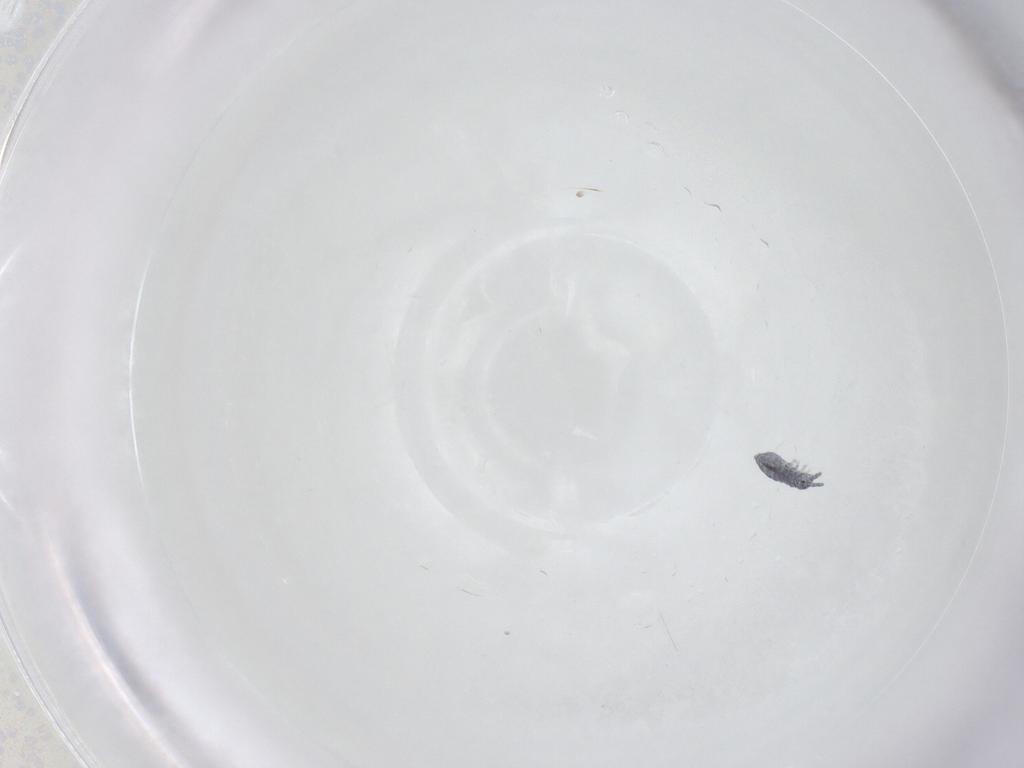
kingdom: Animalia
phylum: Arthropoda
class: Collembola
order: Poduromorpha
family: Hypogastruridae
